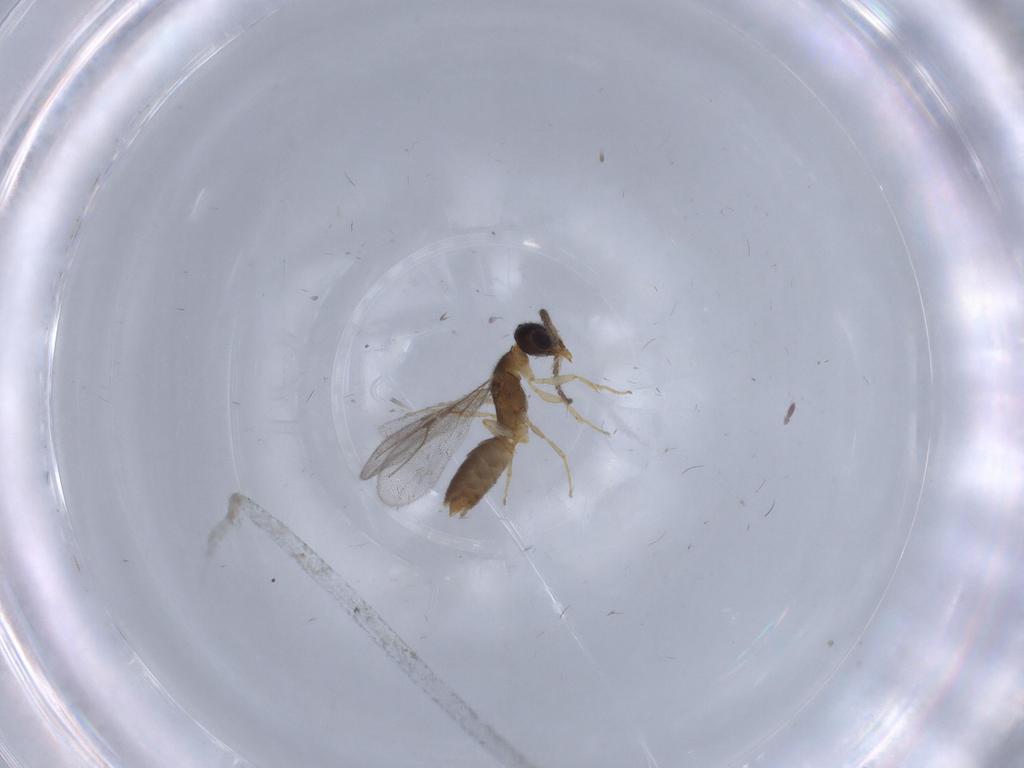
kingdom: Animalia
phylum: Arthropoda
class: Insecta
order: Hymenoptera
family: Bethylidae
